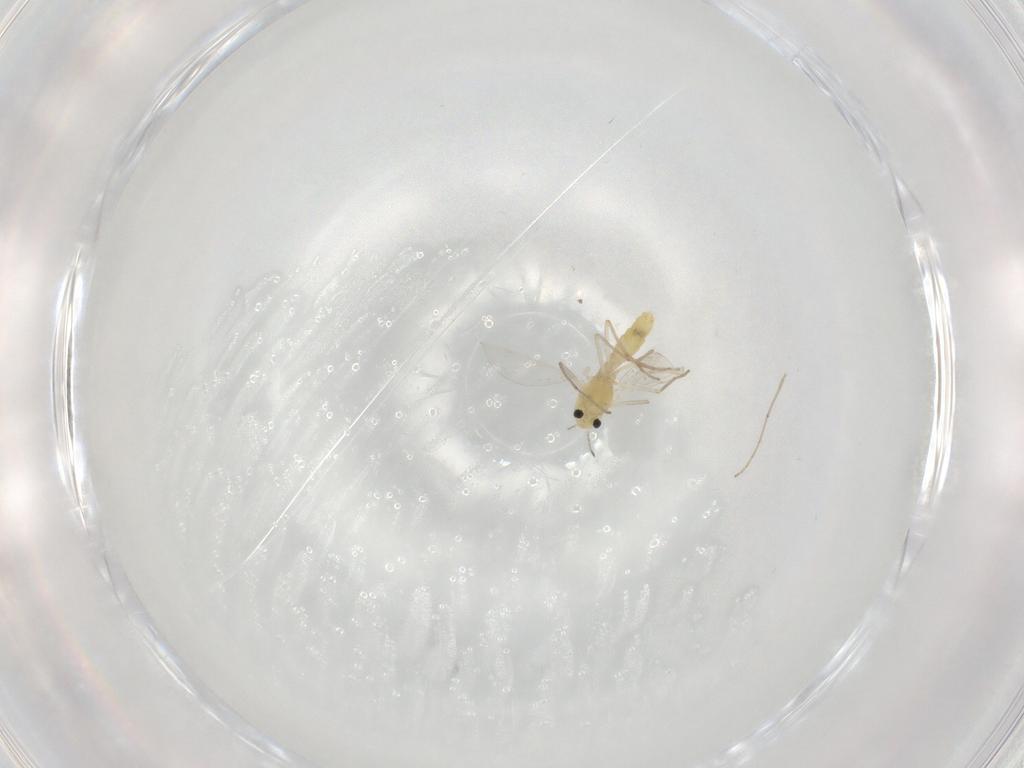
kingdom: Animalia
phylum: Arthropoda
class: Insecta
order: Diptera
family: Chironomidae
